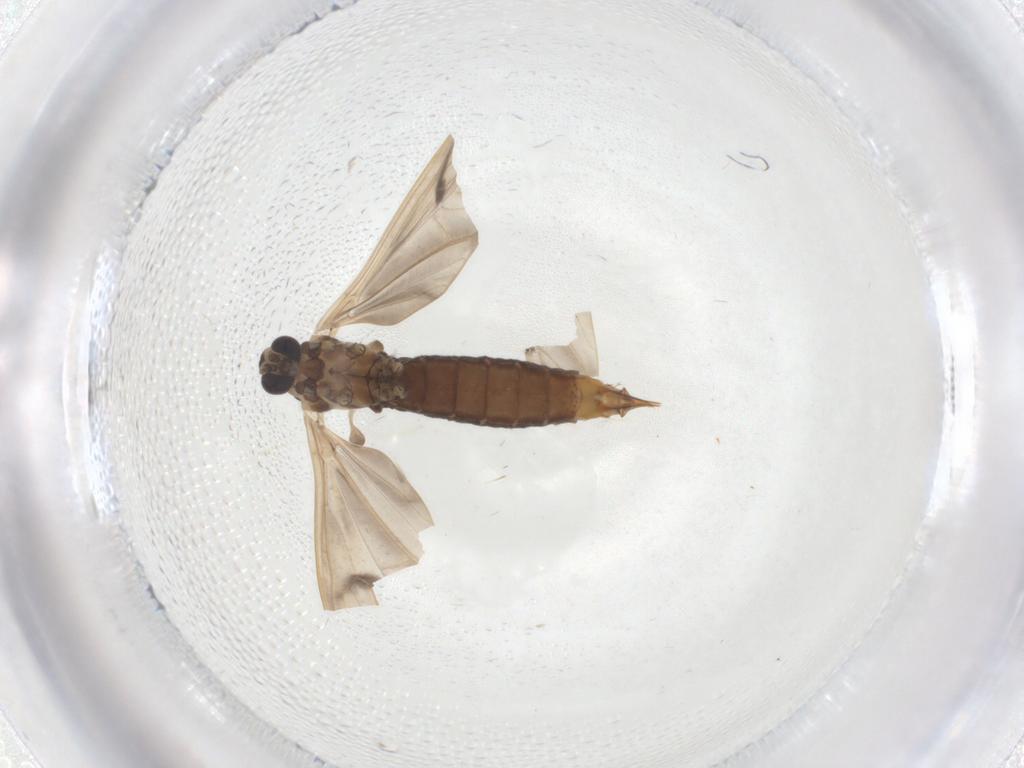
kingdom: Animalia
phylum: Arthropoda
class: Insecta
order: Diptera
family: Limoniidae
